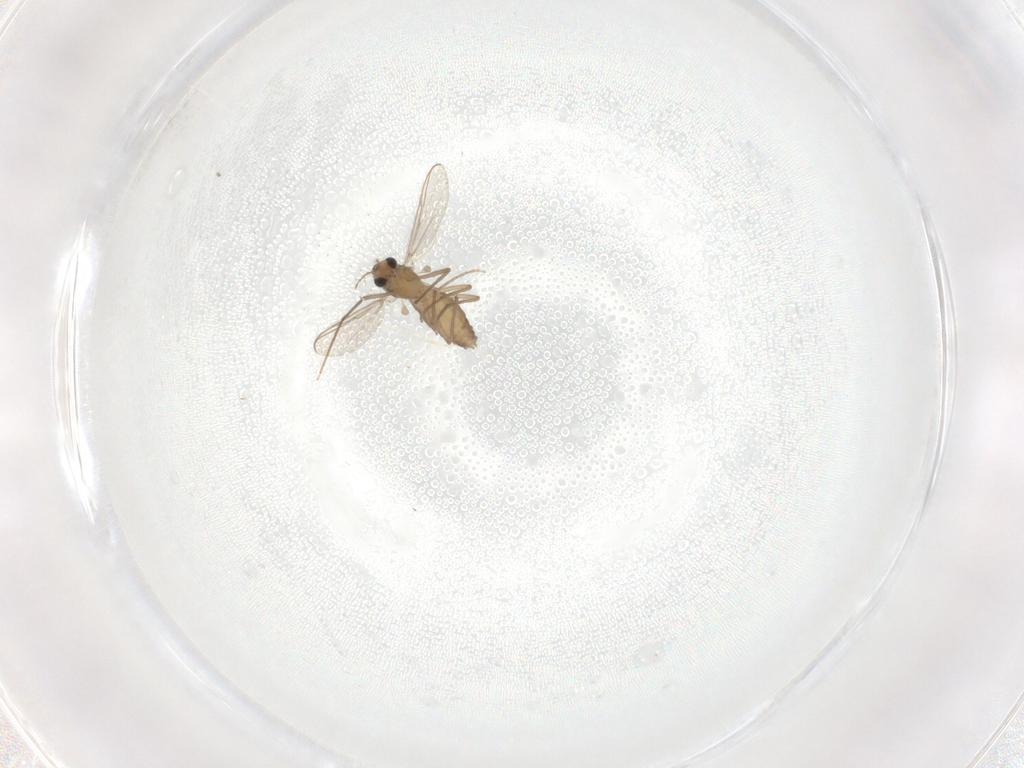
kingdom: Animalia
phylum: Arthropoda
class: Insecta
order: Diptera
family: Chironomidae
